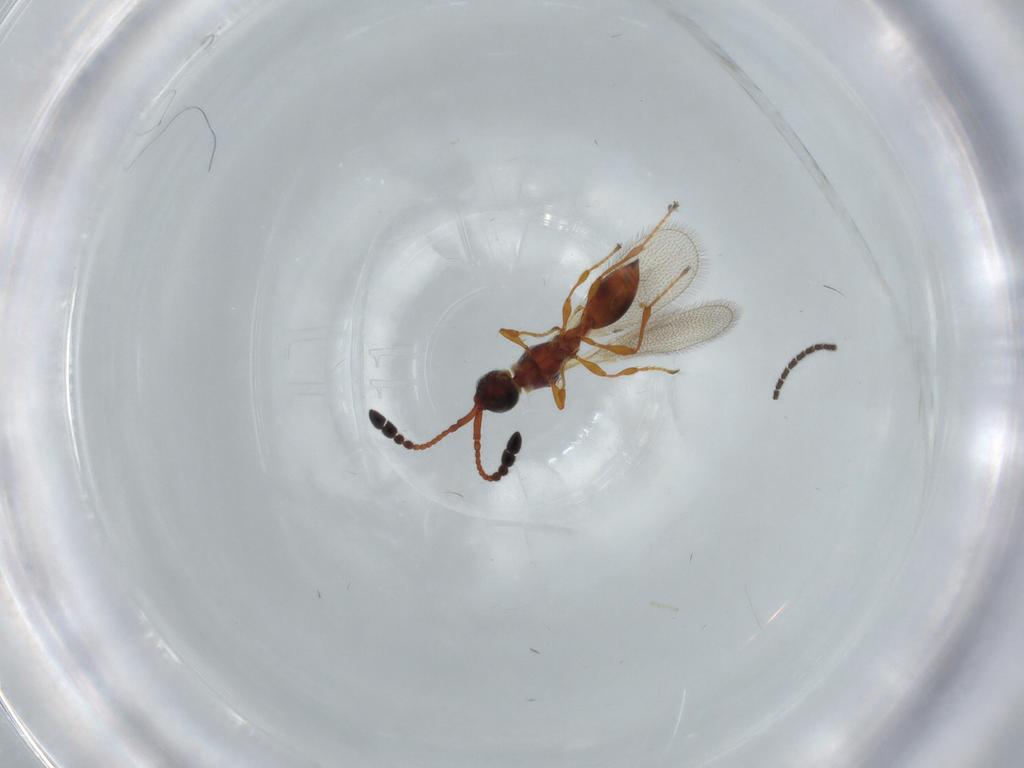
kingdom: Animalia
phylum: Arthropoda
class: Insecta
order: Hymenoptera
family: Diapriidae
